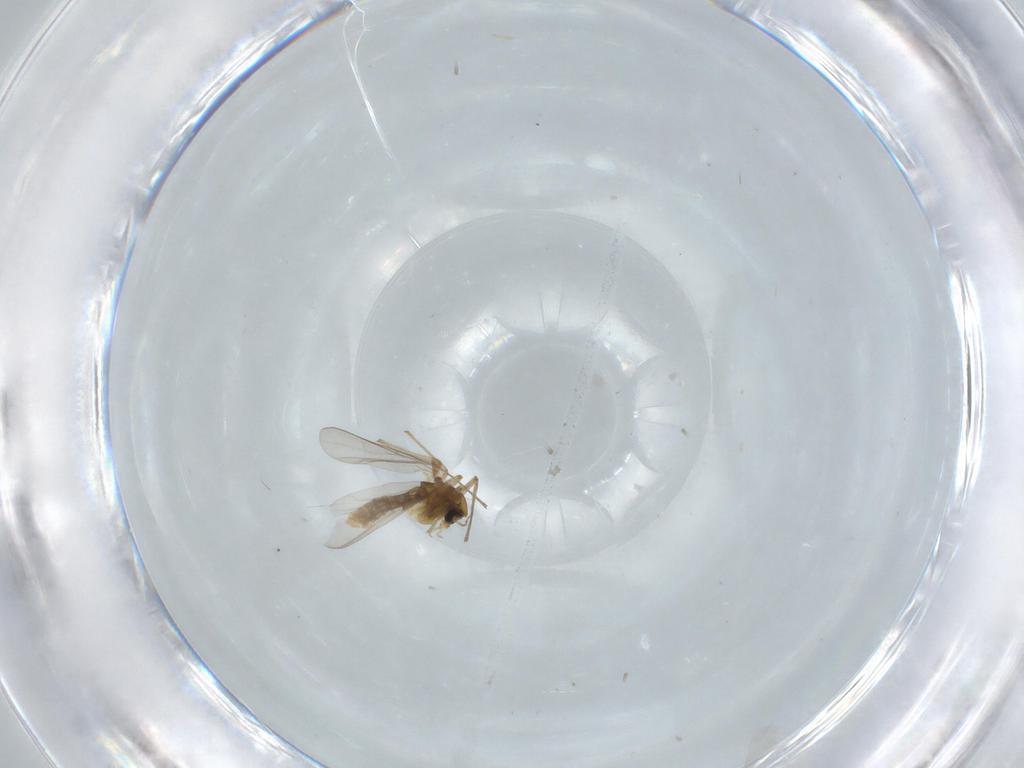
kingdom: Animalia
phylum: Arthropoda
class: Insecta
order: Diptera
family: Chironomidae
